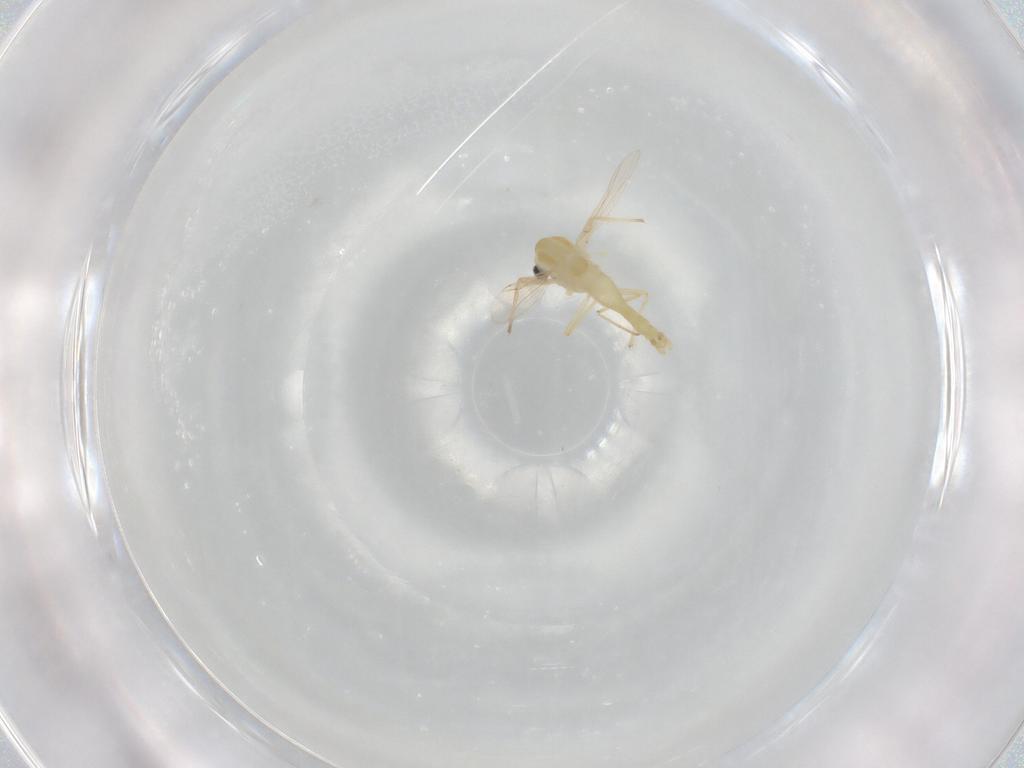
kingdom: Animalia
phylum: Arthropoda
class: Insecta
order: Diptera
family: Chironomidae
